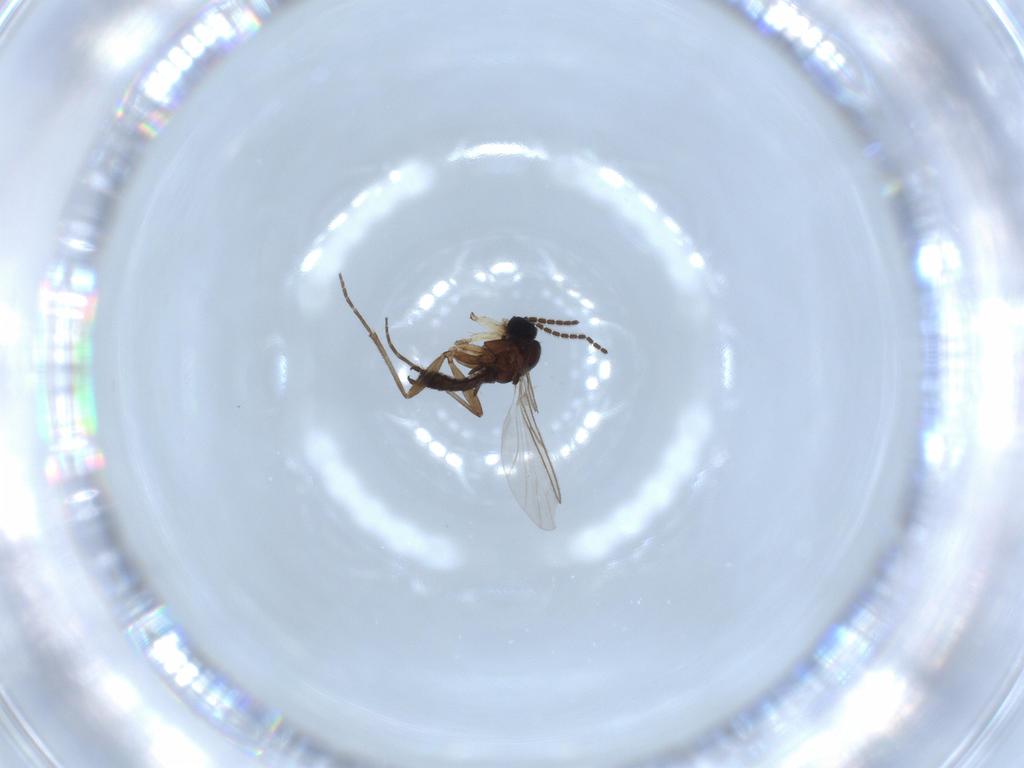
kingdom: Animalia
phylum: Arthropoda
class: Insecta
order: Diptera
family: Sciaridae
